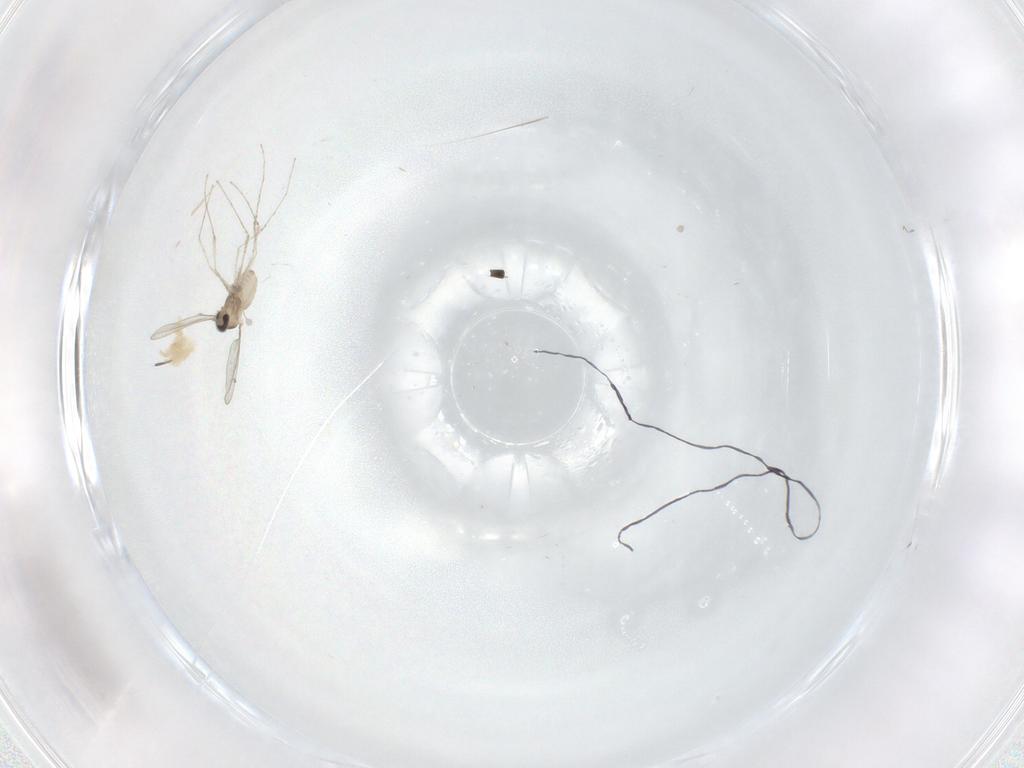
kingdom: Animalia
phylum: Arthropoda
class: Insecta
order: Diptera
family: Cecidomyiidae
